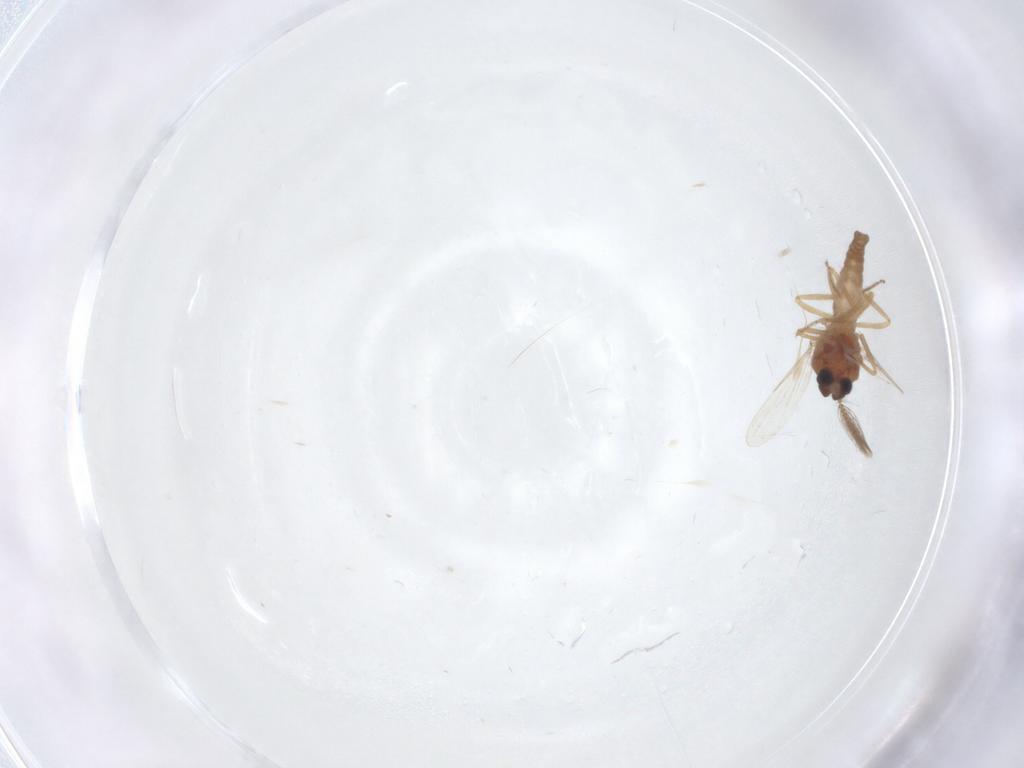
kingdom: Animalia
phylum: Arthropoda
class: Insecta
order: Diptera
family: Ceratopogonidae
